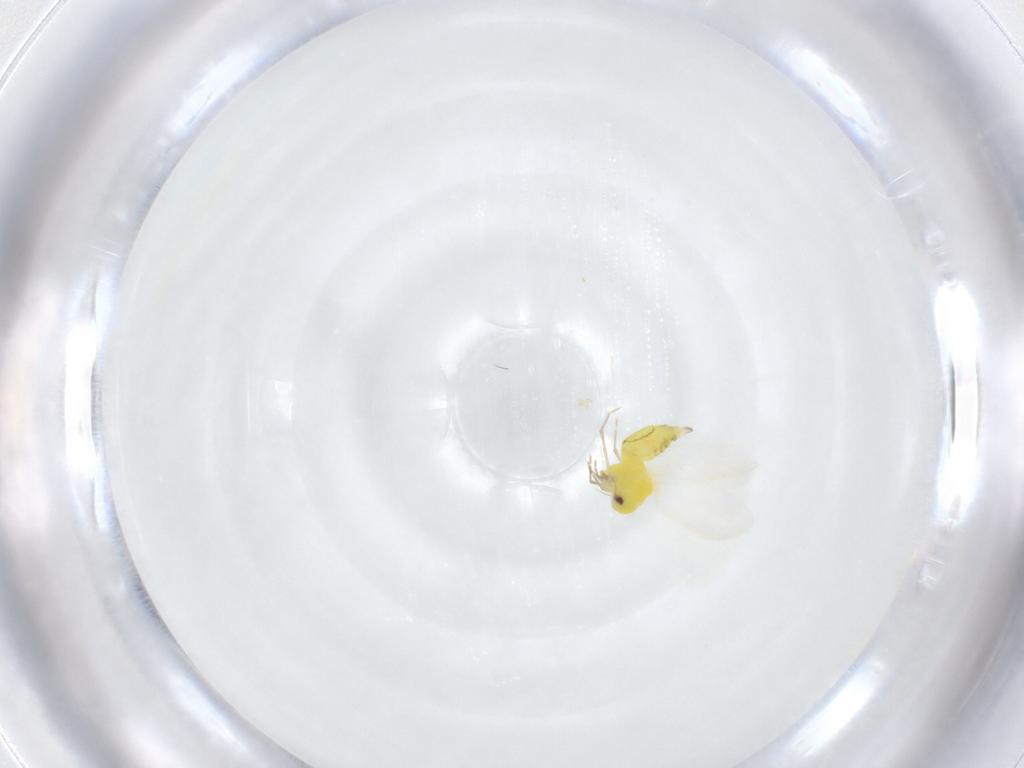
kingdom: Animalia
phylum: Arthropoda
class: Insecta
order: Hemiptera
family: Aleyrodidae
